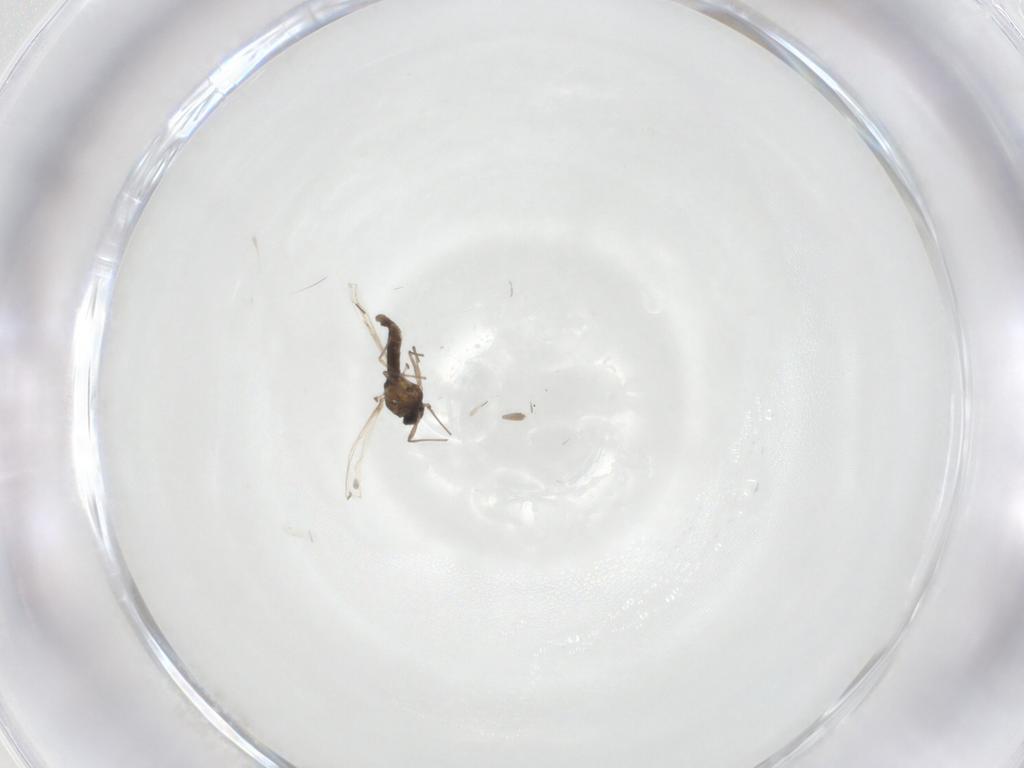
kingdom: Animalia
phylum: Arthropoda
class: Insecta
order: Diptera
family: Chironomidae
